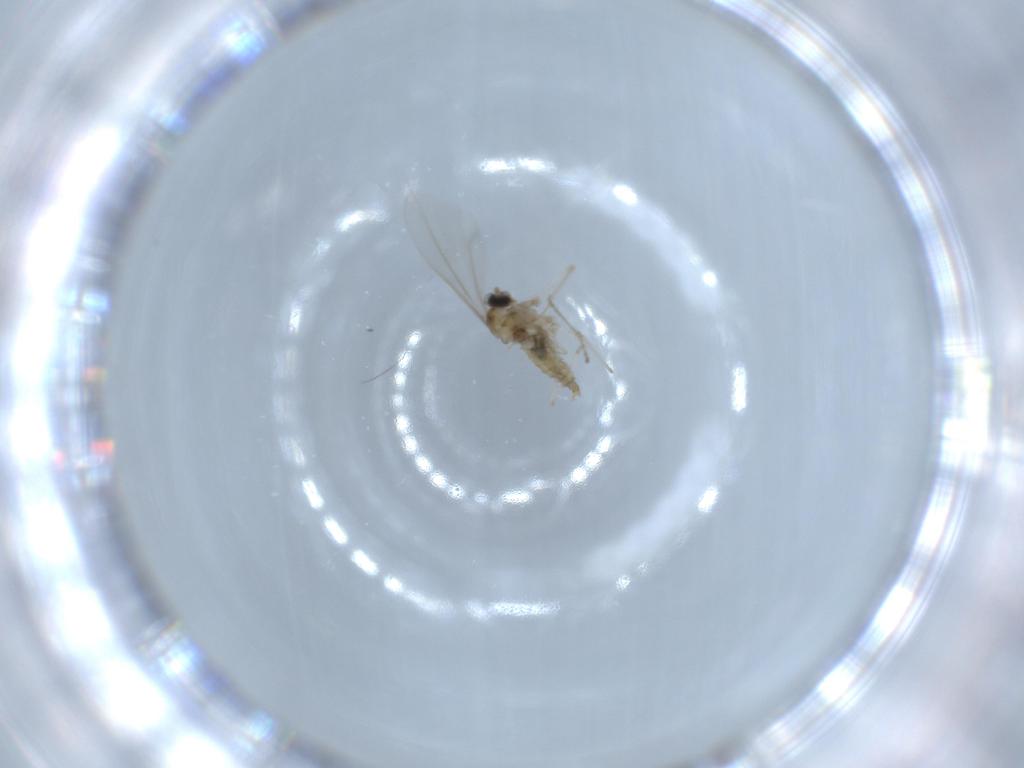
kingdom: Animalia
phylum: Arthropoda
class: Insecta
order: Diptera
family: Cecidomyiidae
